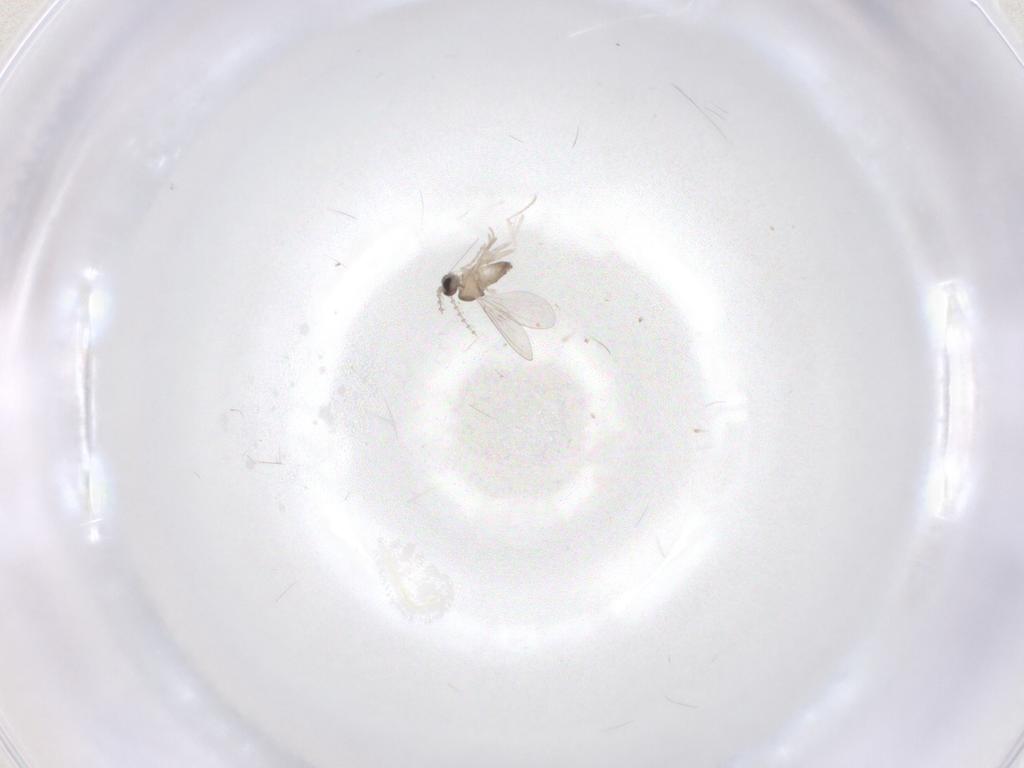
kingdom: Animalia
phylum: Arthropoda
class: Insecta
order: Diptera
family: Cecidomyiidae
